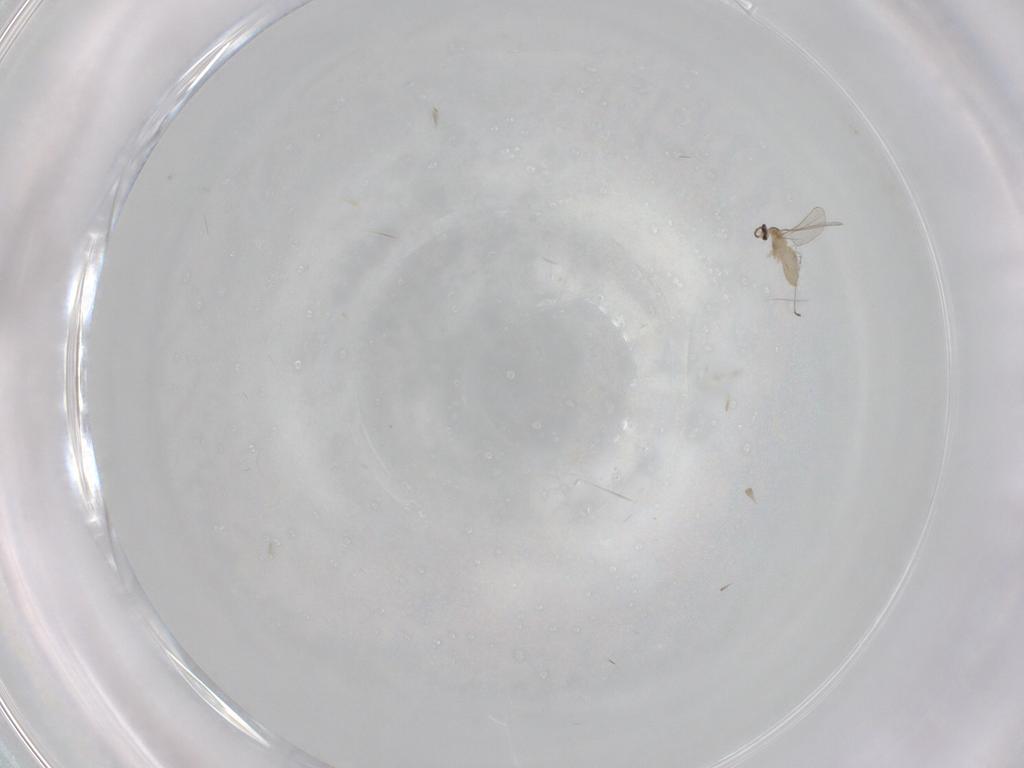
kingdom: Animalia
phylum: Arthropoda
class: Insecta
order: Diptera
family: Cecidomyiidae
